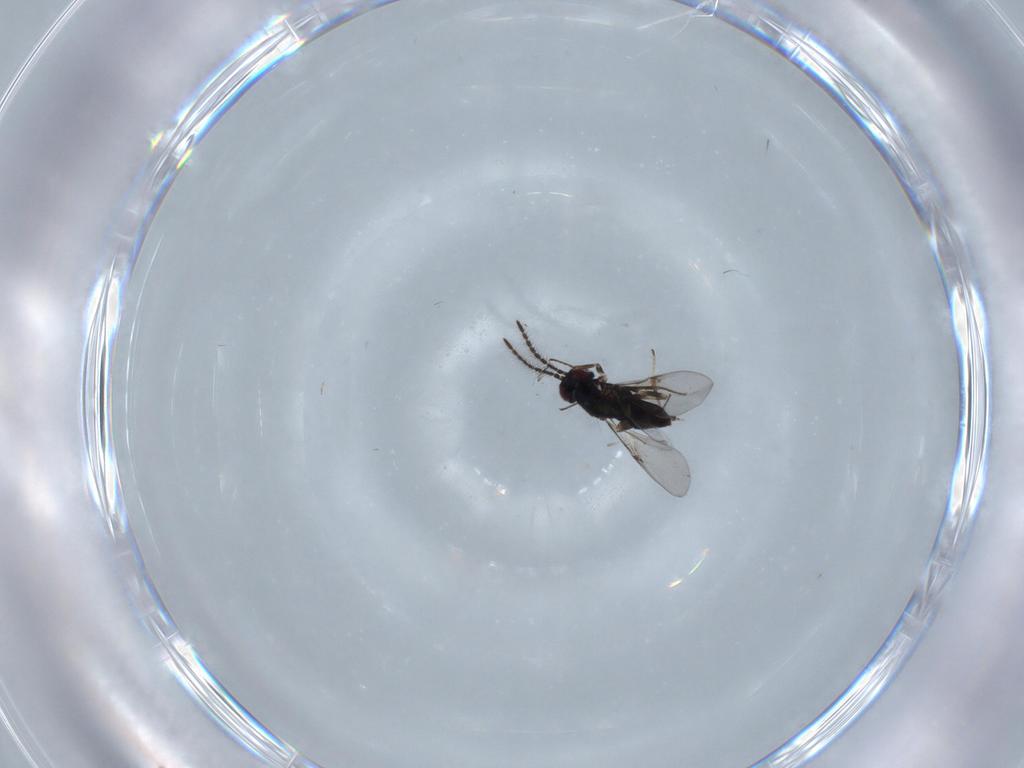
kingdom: Animalia
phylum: Arthropoda
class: Insecta
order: Hymenoptera
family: Encyrtidae
